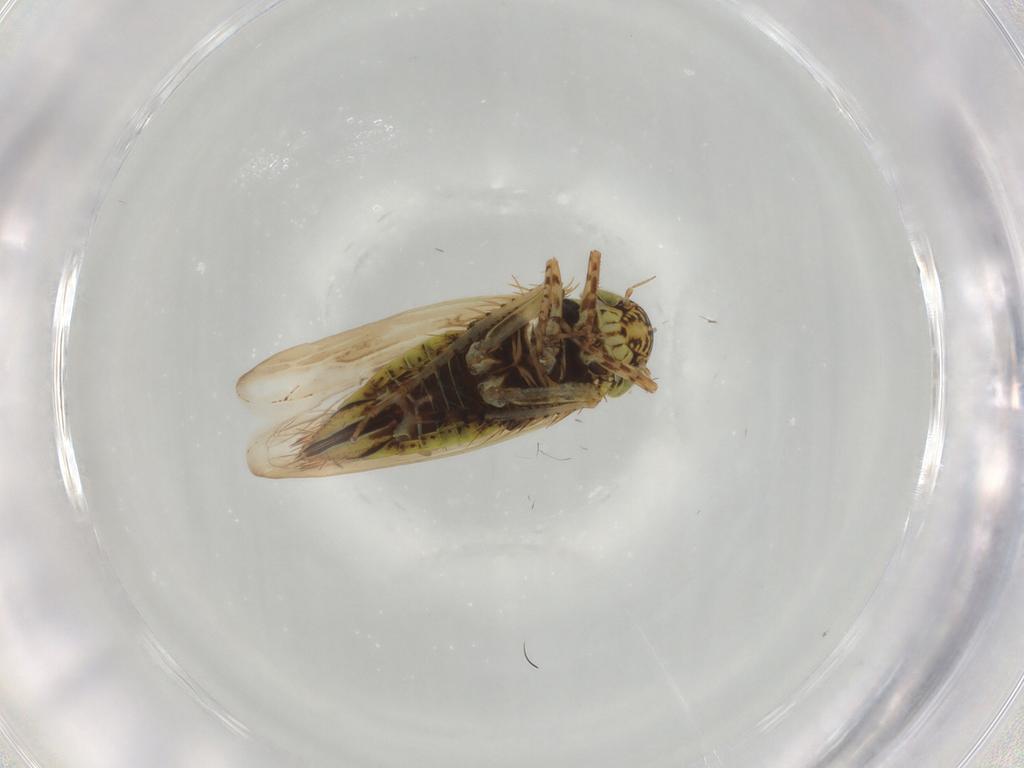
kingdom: Animalia
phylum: Arthropoda
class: Insecta
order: Hemiptera
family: Cicadellidae
